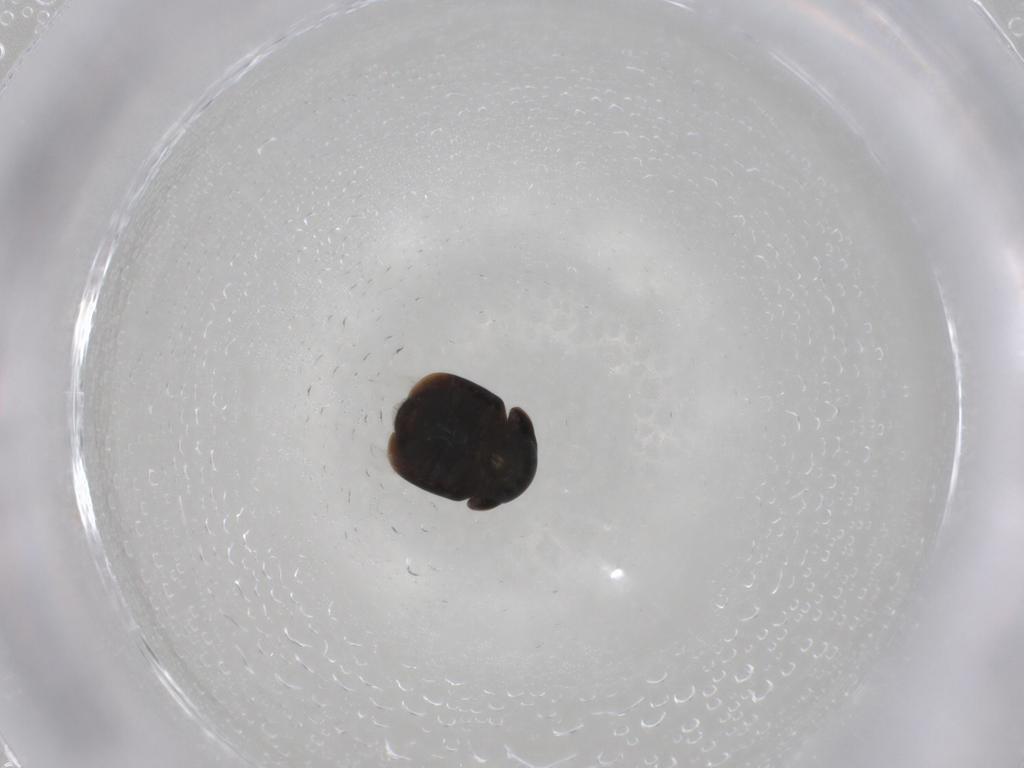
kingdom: Animalia
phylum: Arthropoda
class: Insecta
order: Coleoptera
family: Cybocephalidae
